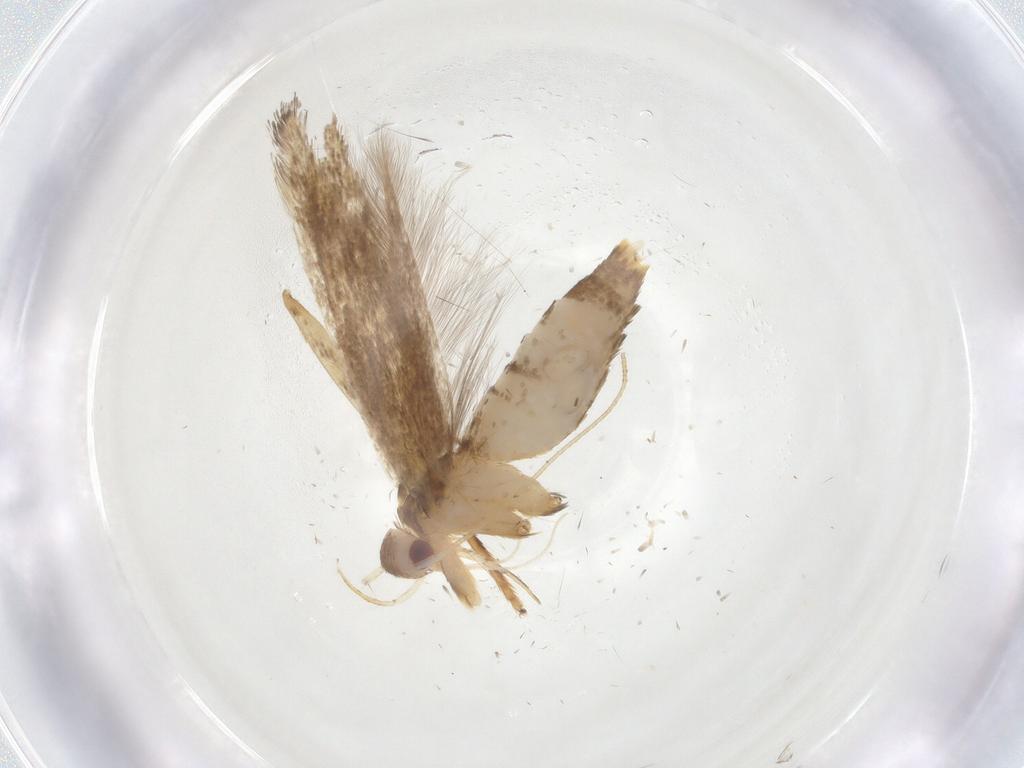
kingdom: Animalia
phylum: Arthropoda
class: Insecta
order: Lepidoptera
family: Cosmopterigidae
